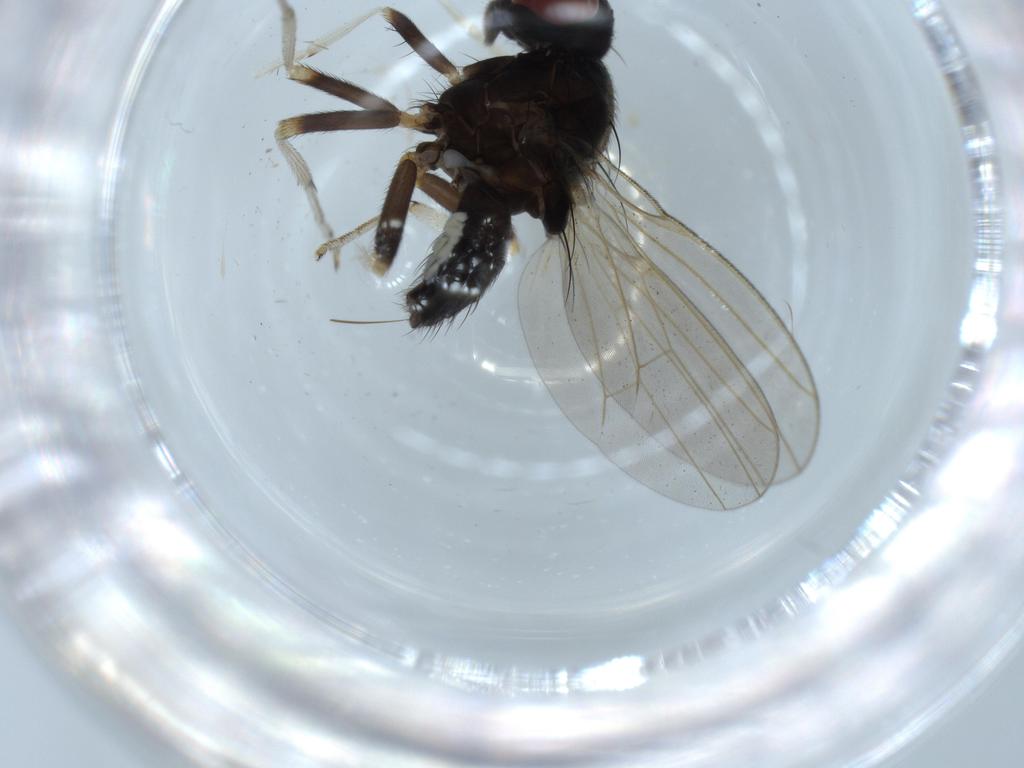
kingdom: Animalia
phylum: Arthropoda
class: Insecta
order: Diptera
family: Lauxaniidae
